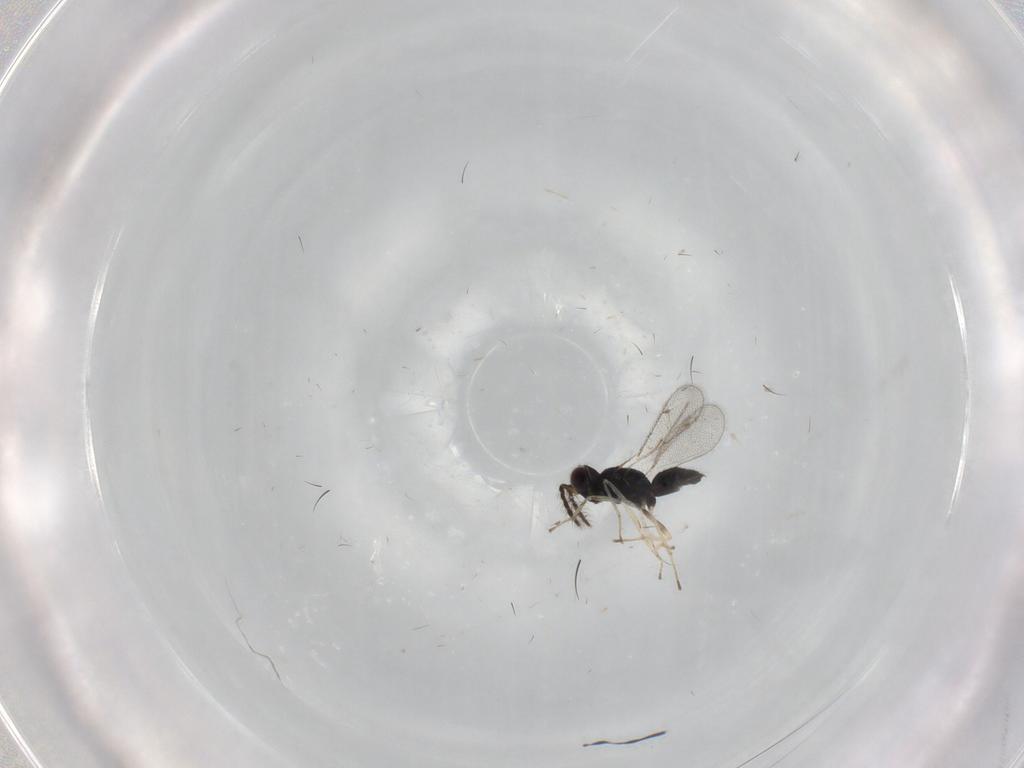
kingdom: Animalia
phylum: Arthropoda
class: Insecta
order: Hymenoptera
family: Eulophidae
